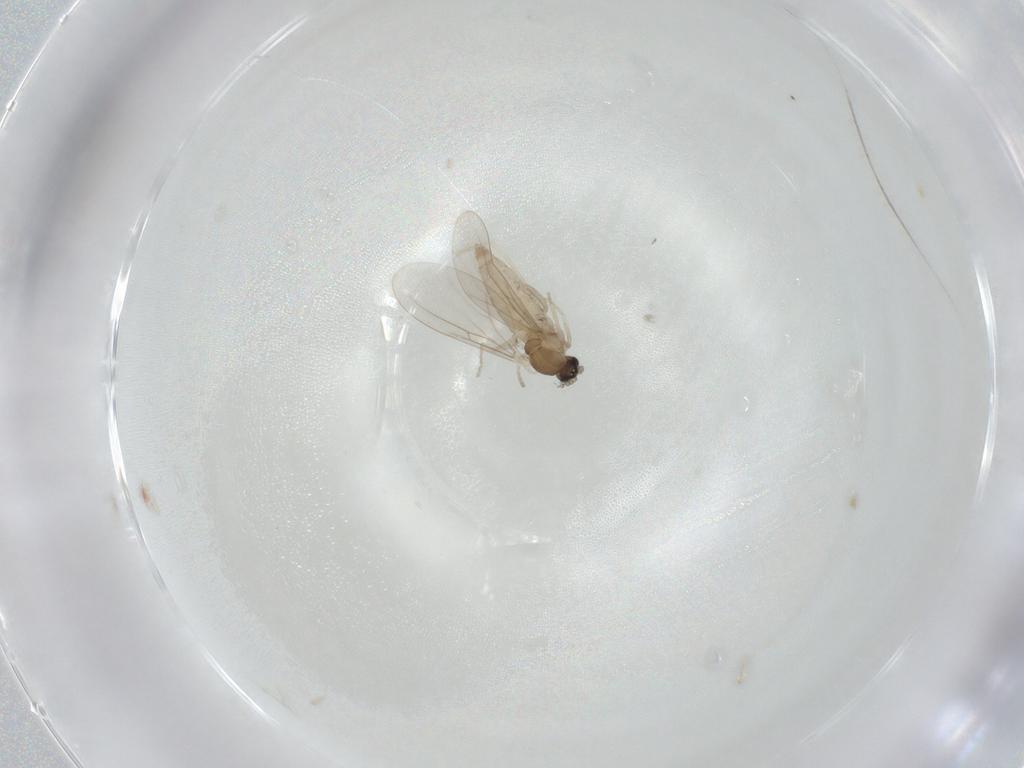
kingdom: Animalia
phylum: Arthropoda
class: Insecta
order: Diptera
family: Cecidomyiidae
